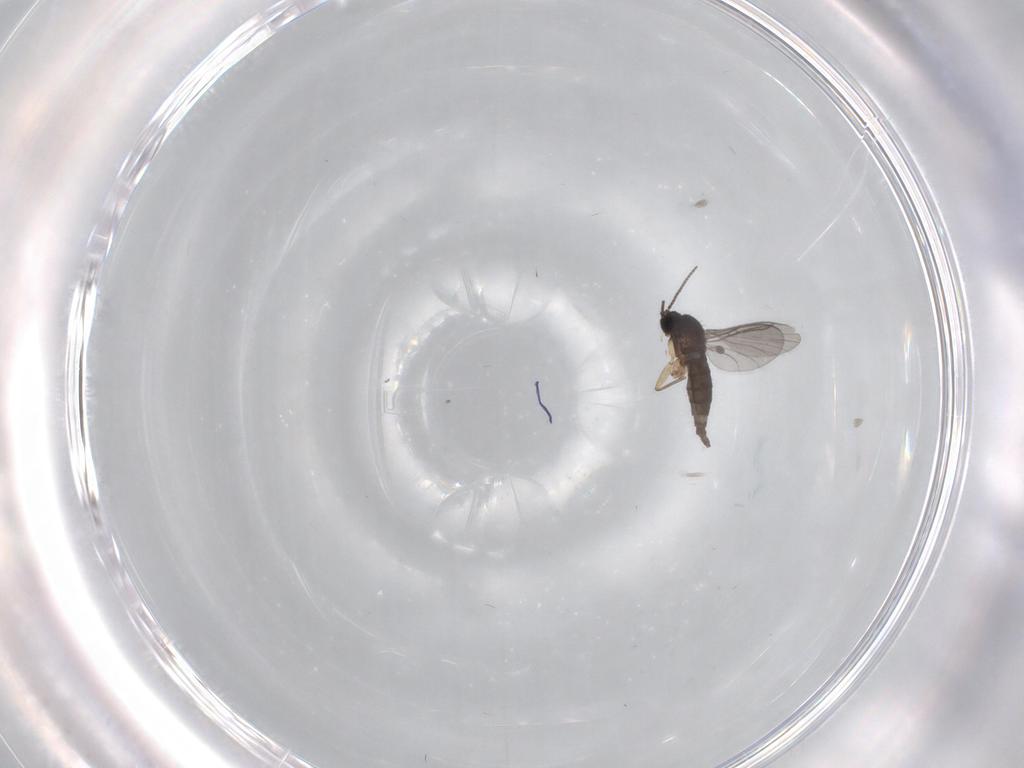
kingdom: Animalia
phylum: Arthropoda
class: Insecta
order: Diptera
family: Sciaridae
